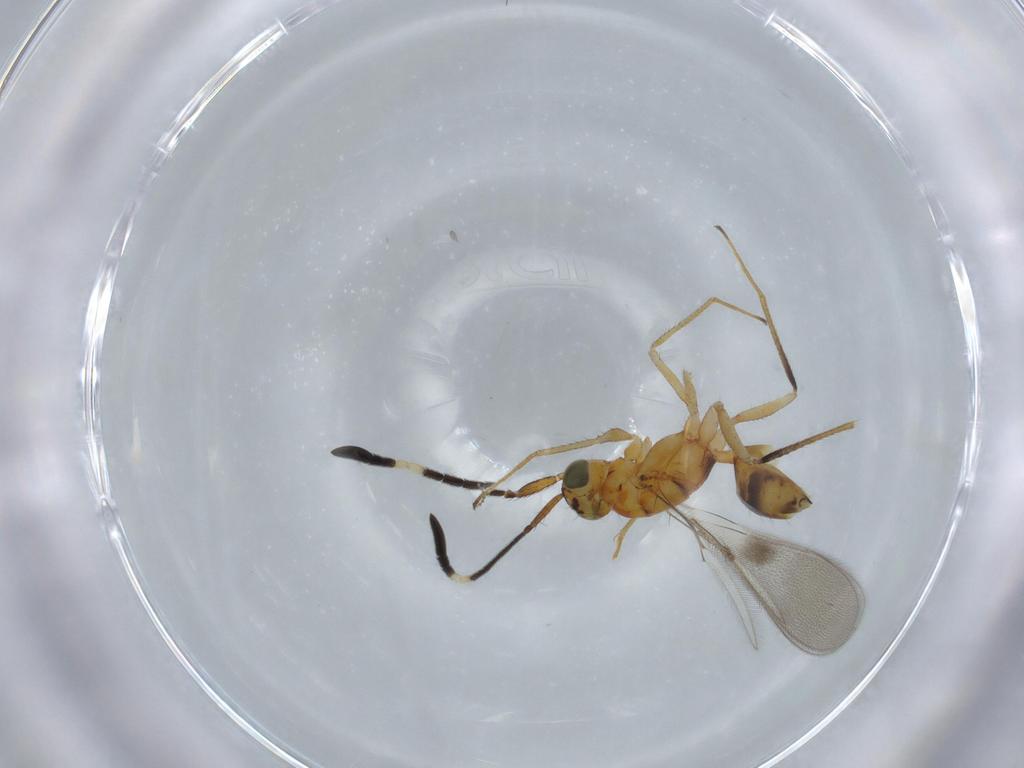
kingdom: Animalia
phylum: Arthropoda
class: Insecta
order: Hymenoptera
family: Mymaridae
